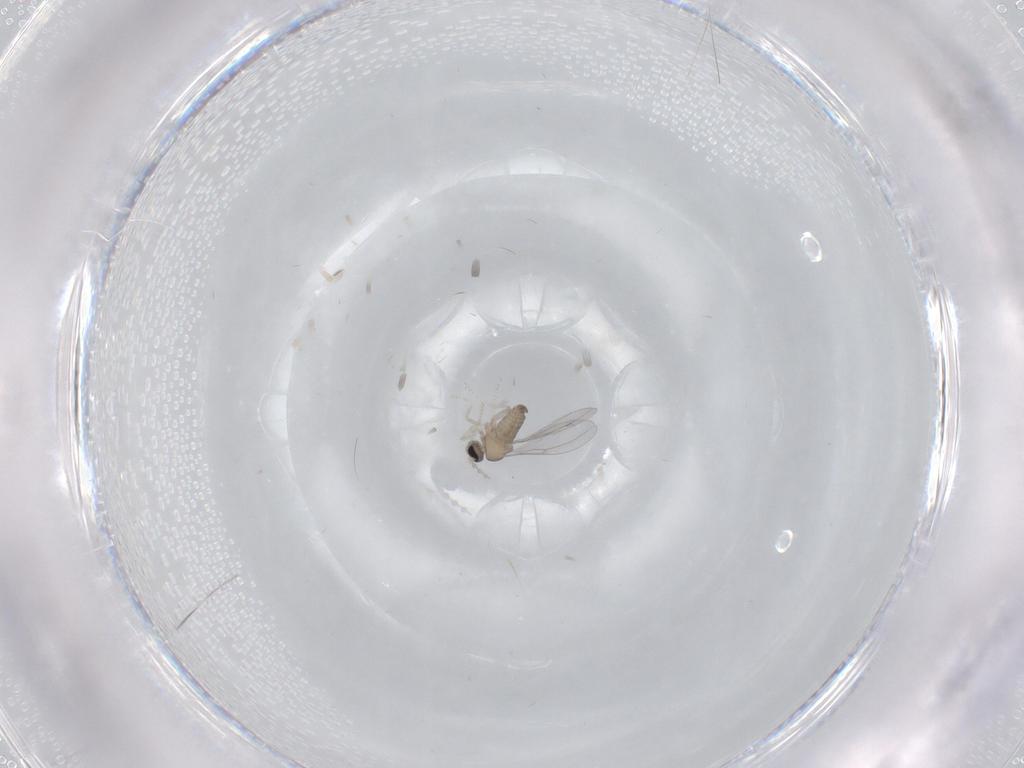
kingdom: Animalia
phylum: Arthropoda
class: Insecta
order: Diptera
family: Cecidomyiidae
